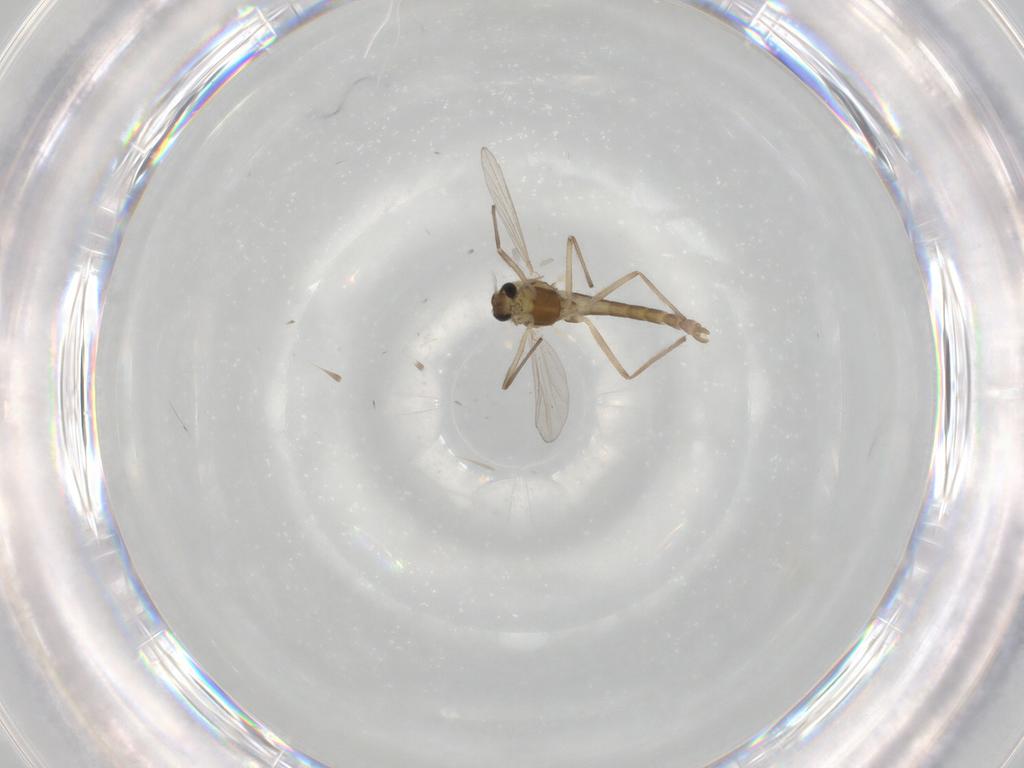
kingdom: Animalia
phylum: Arthropoda
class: Insecta
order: Diptera
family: Chironomidae
